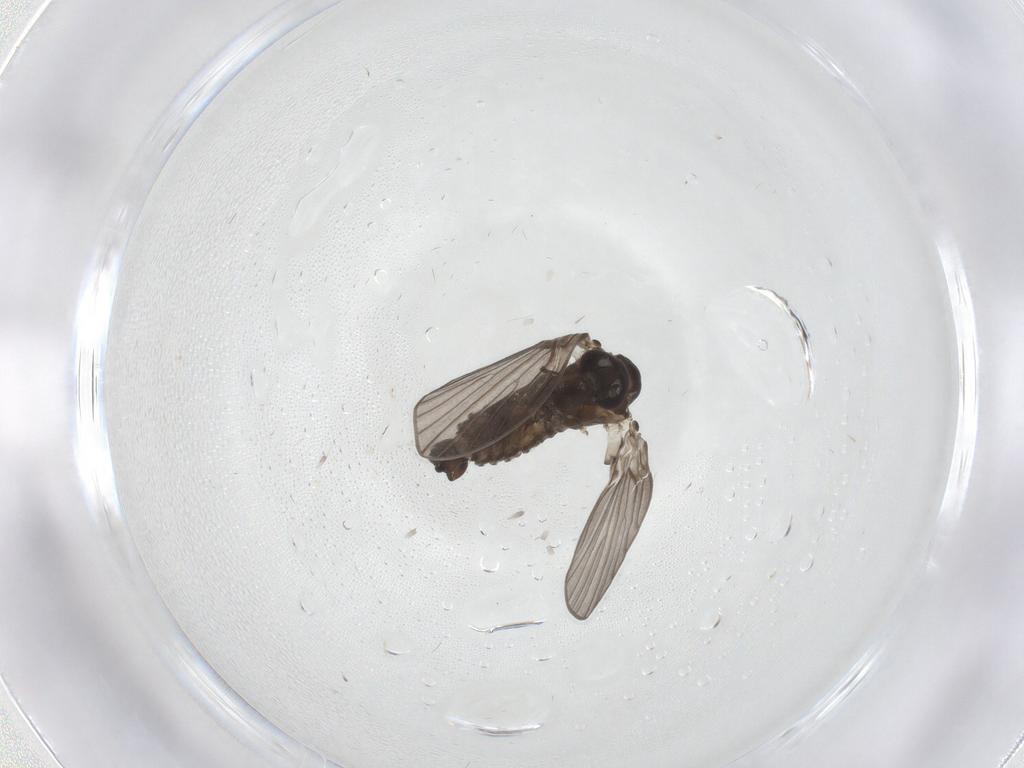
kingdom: Animalia
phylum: Arthropoda
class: Insecta
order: Diptera
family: Psychodidae
